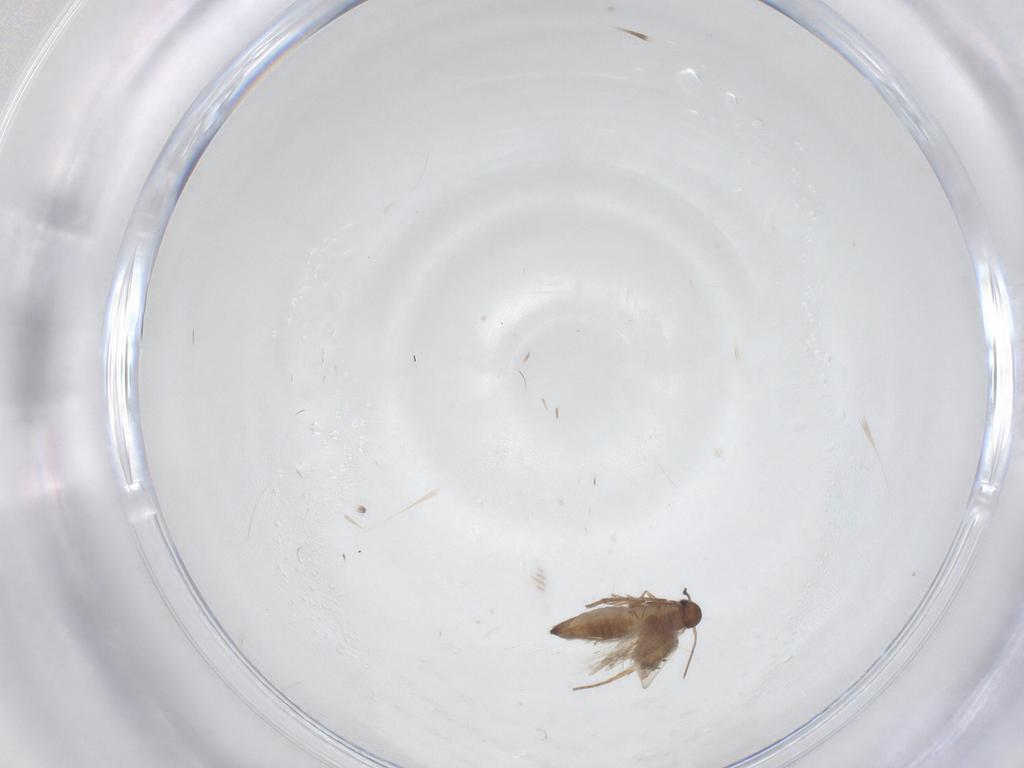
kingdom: Animalia
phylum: Arthropoda
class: Insecta
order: Lepidoptera
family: Heliozelidae
